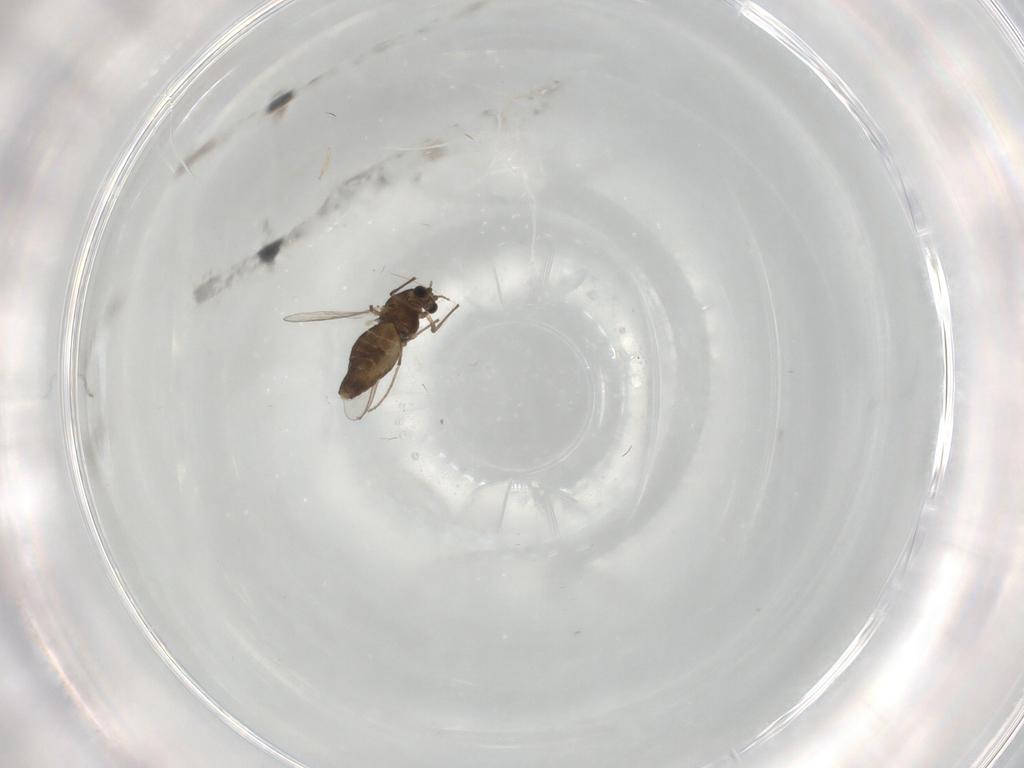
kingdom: Animalia
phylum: Arthropoda
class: Insecta
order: Diptera
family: Chironomidae
